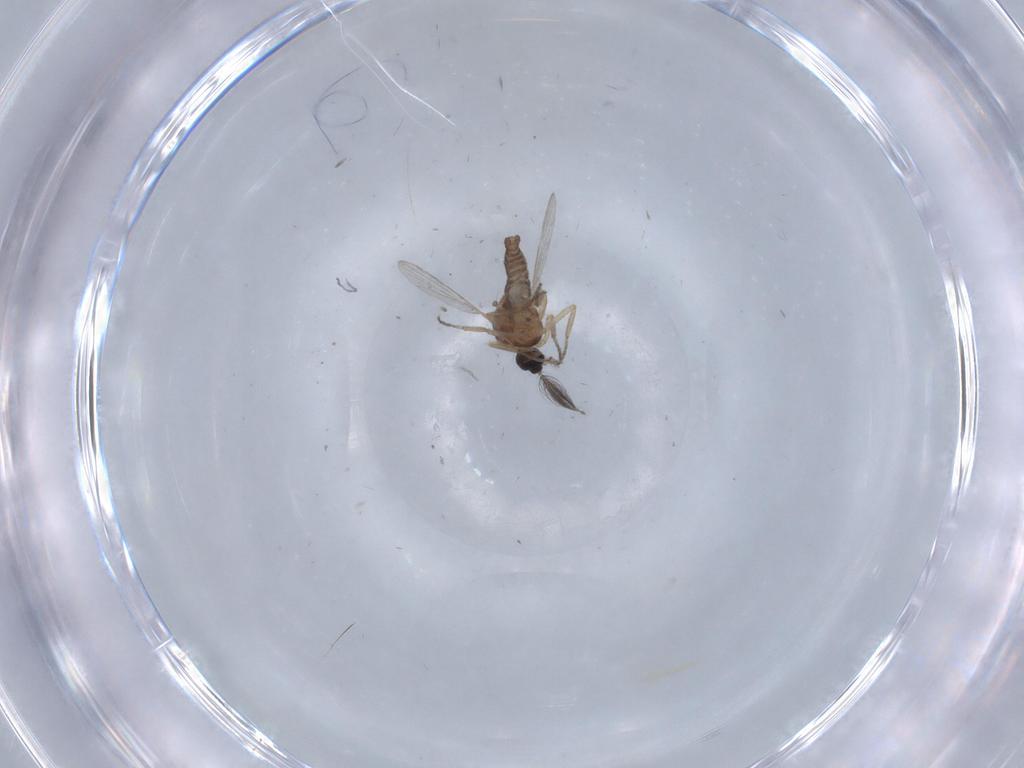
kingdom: Animalia
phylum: Arthropoda
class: Insecta
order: Diptera
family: Ceratopogonidae
